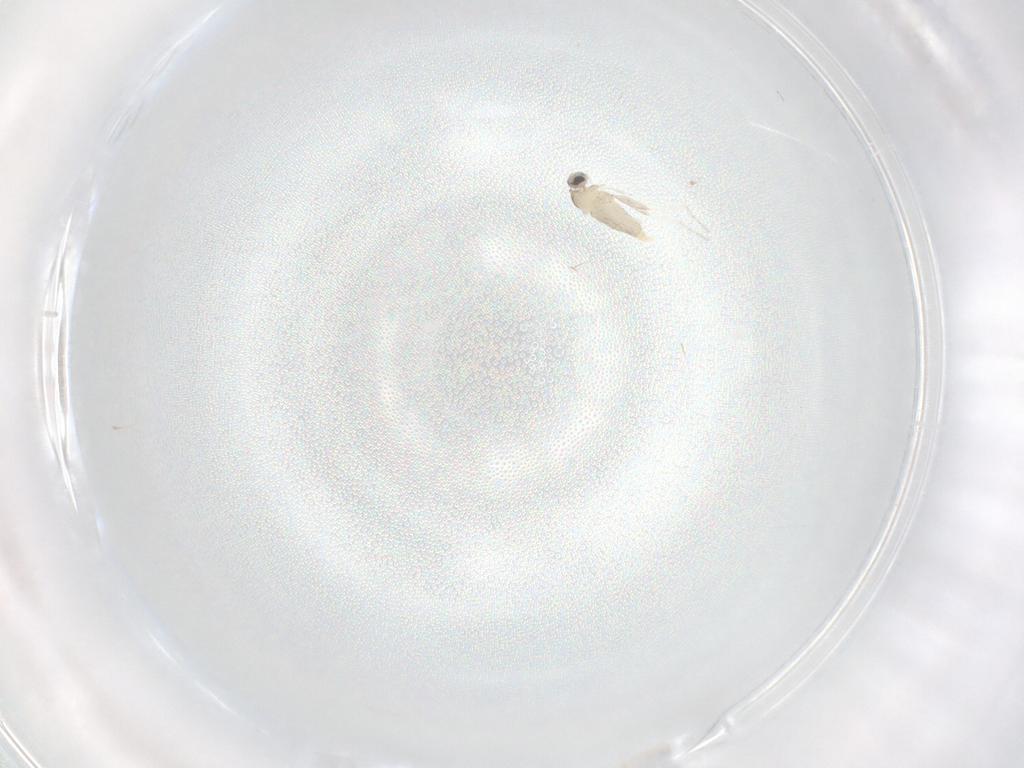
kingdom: Animalia
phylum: Arthropoda
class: Insecta
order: Diptera
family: Cecidomyiidae
